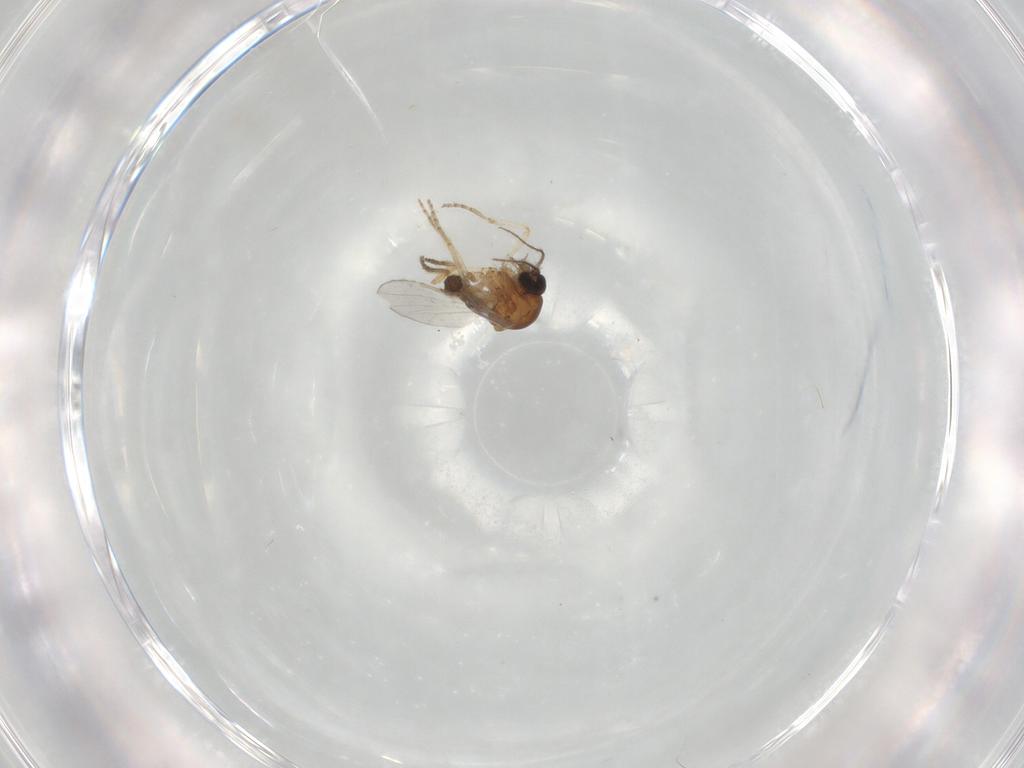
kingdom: Animalia
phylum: Arthropoda
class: Insecta
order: Diptera
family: Ceratopogonidae
